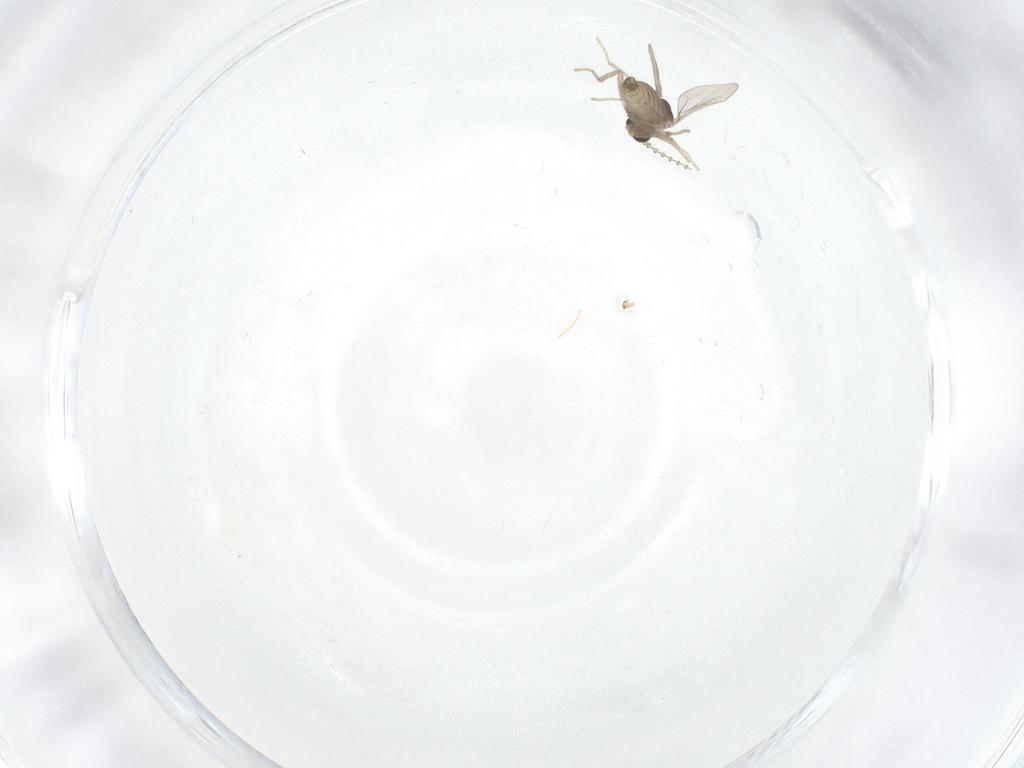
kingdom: Animalia
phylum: Arthropoda
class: Insecta
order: Diptera
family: Cecidomyiidae
